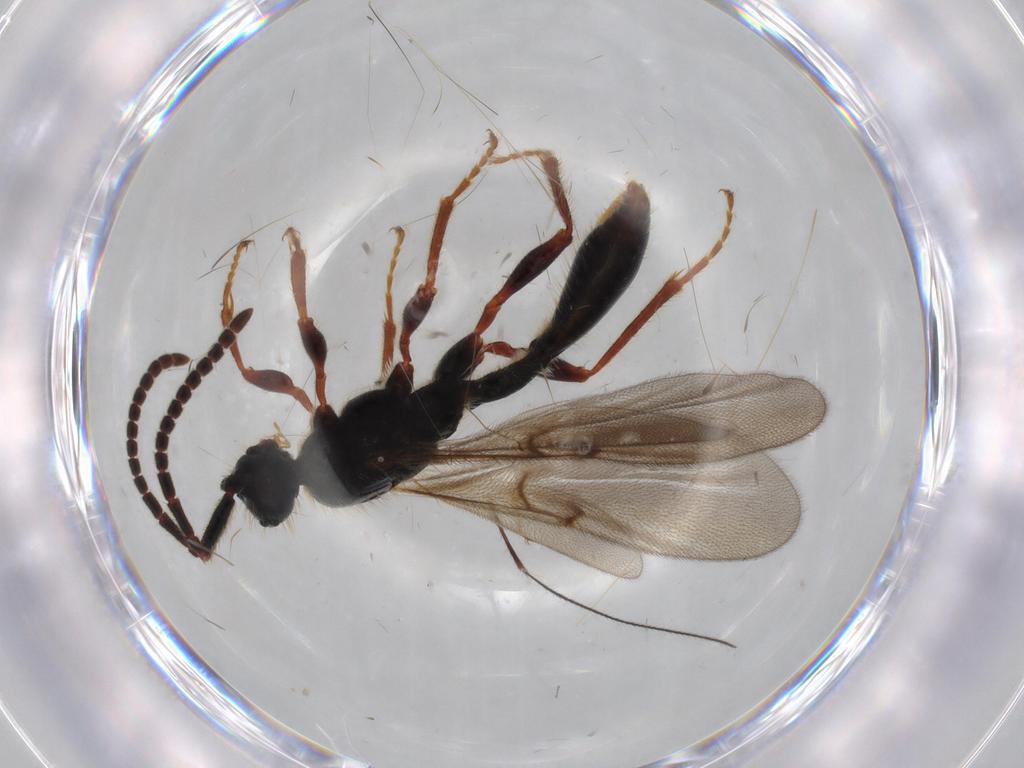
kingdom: Animalia
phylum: Arthropoda
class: Insecta
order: Hymenoptera
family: Diapriidae
